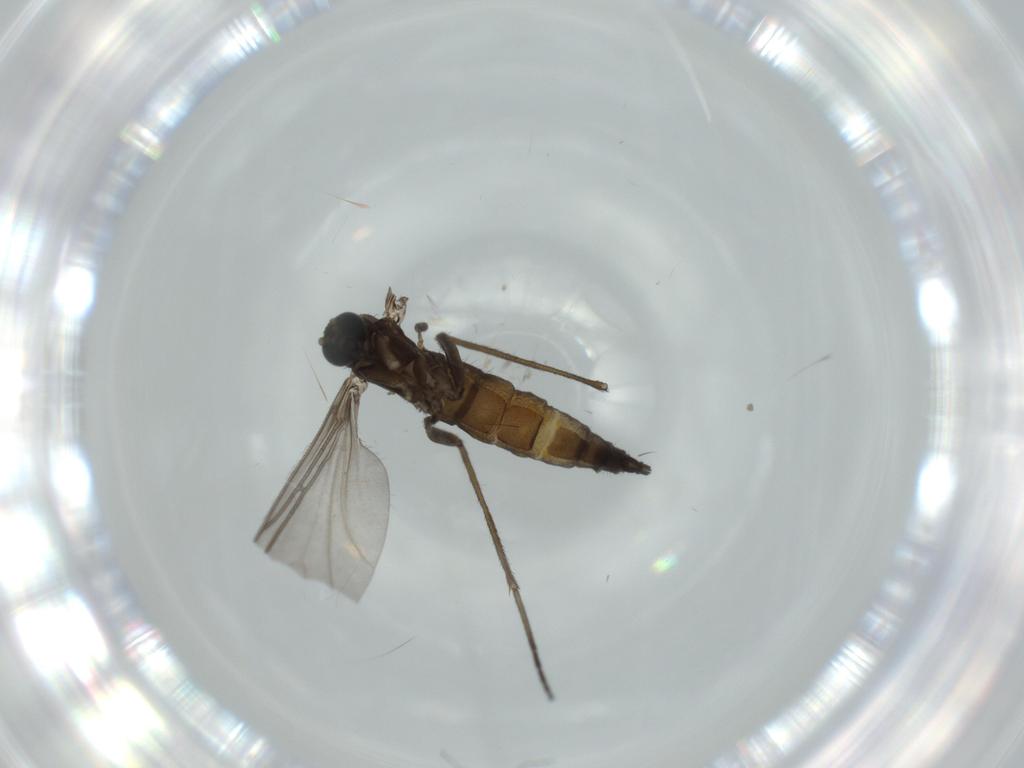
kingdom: Animalia
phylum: Arthropoda
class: Insecta
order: Diptera
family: Sciaridae
